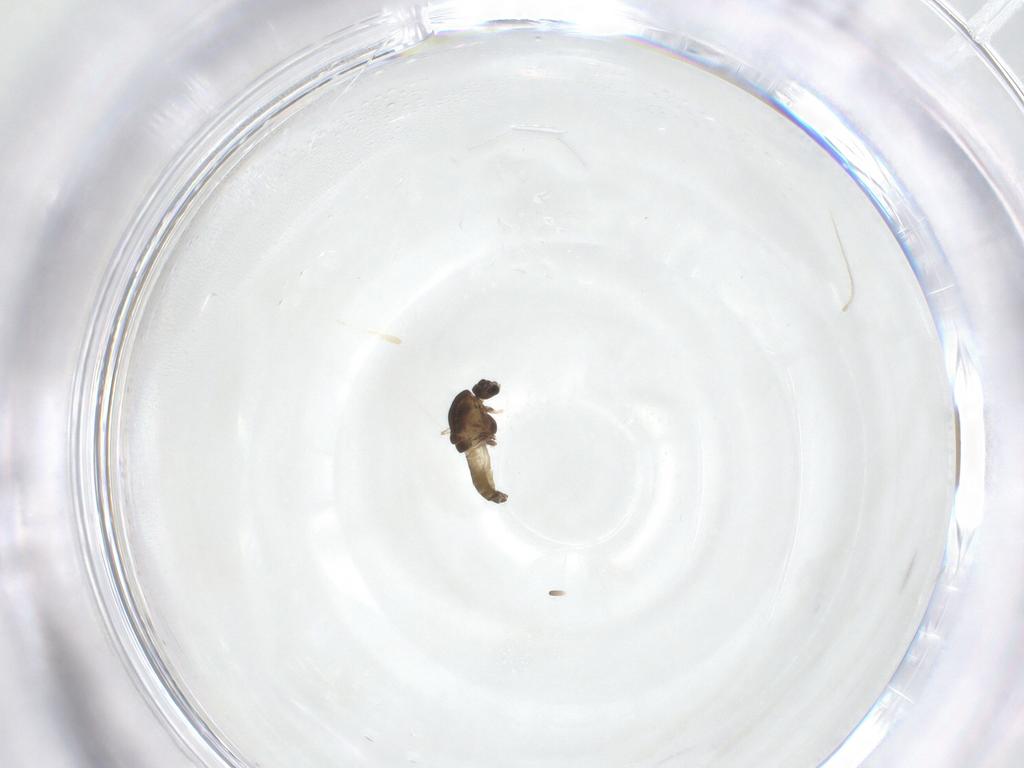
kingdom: Animalia
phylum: Arthropoda
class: Insecta
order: Diptera
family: Chironomidae
